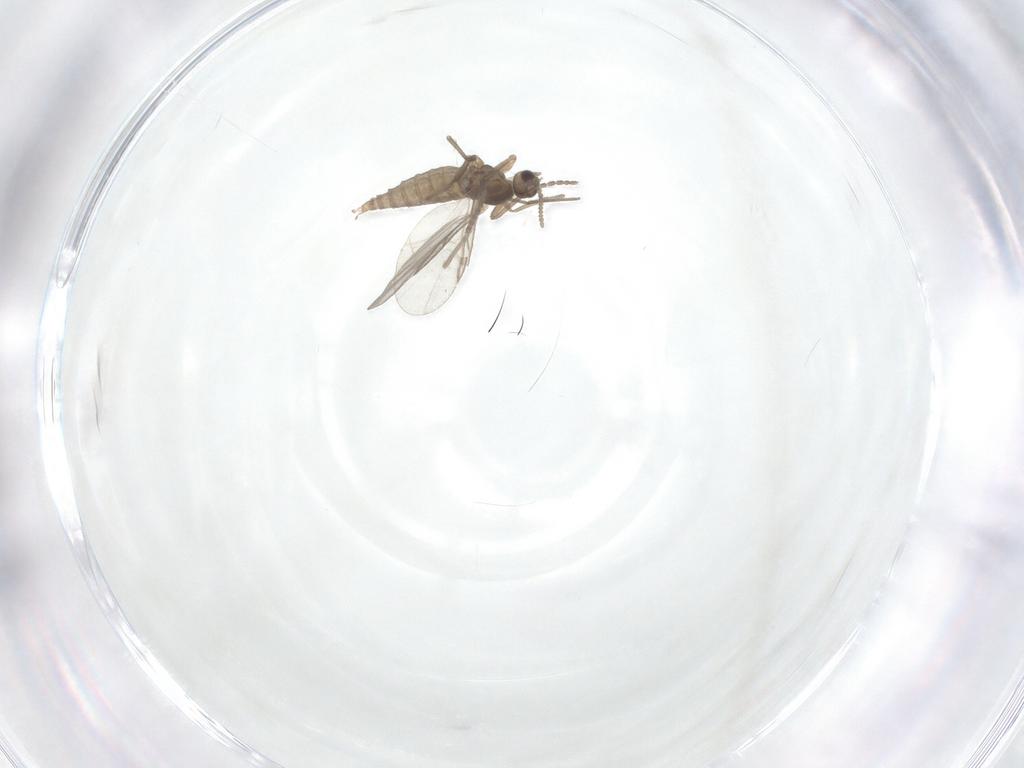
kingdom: Animalia
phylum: Arthropoda
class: Insecta
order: Diptera
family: Cecidomyiidae
